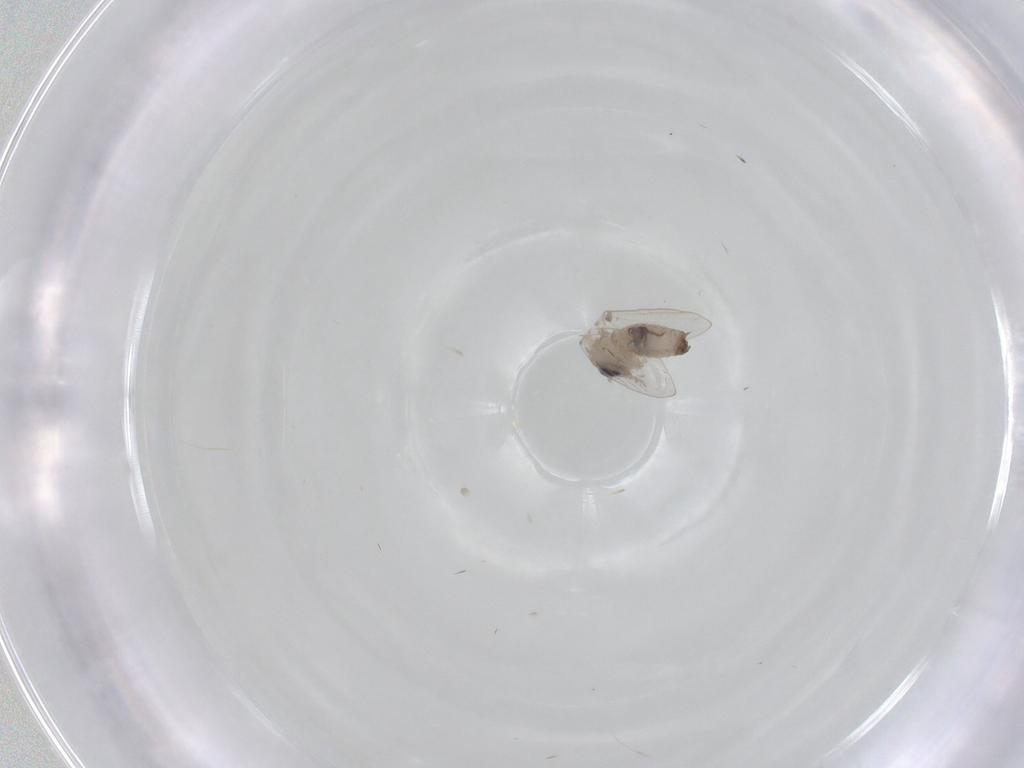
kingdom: Animalia
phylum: Arthropoda
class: Insecta
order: Diptera
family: Psychodidae
